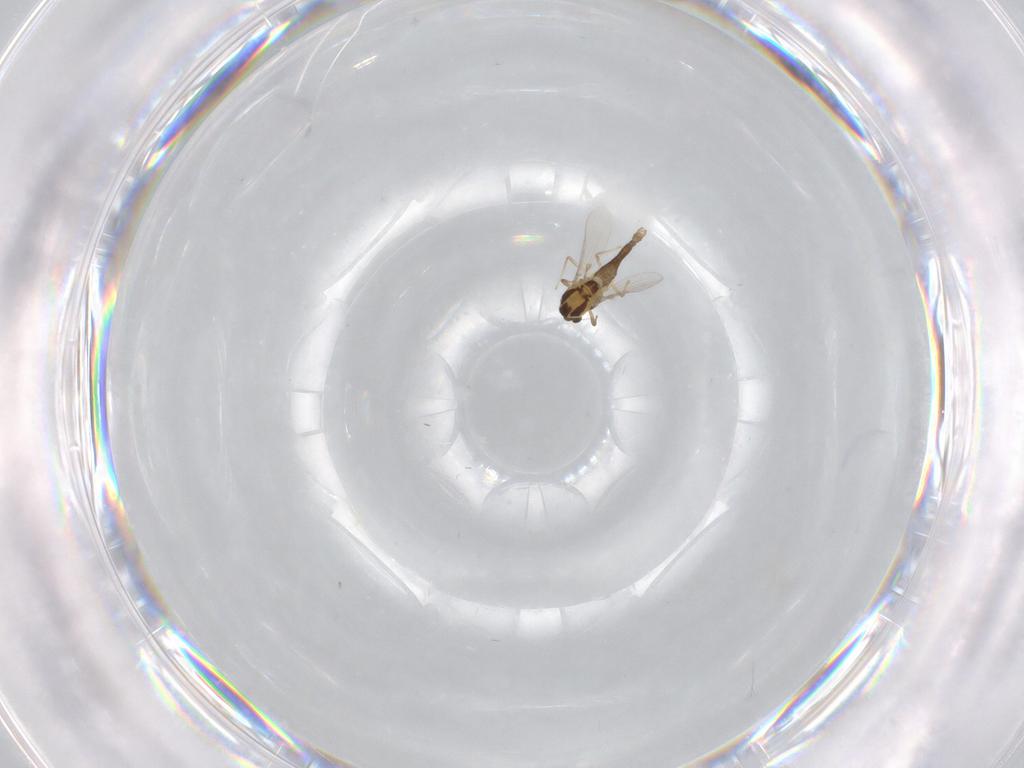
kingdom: Animalia
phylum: Arthropoda
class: Insecta
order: Diptera
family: Chironomidae
